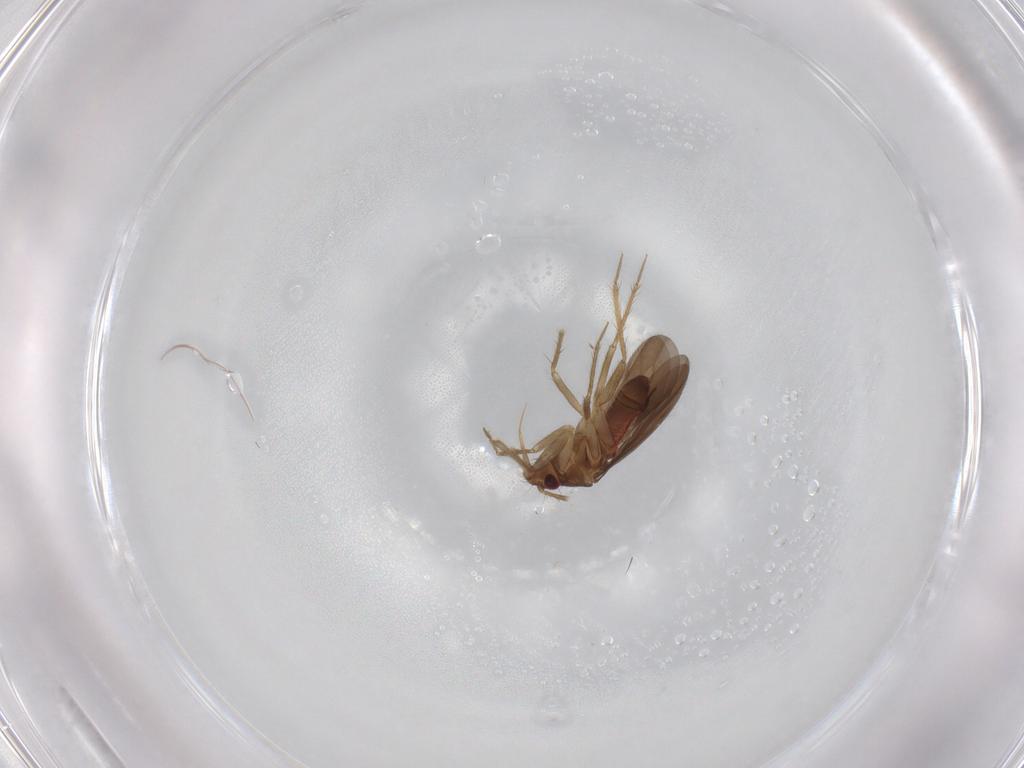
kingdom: Animalia
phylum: Arthropoda
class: Insecta
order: Hemiptera
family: Ceratocombidae
